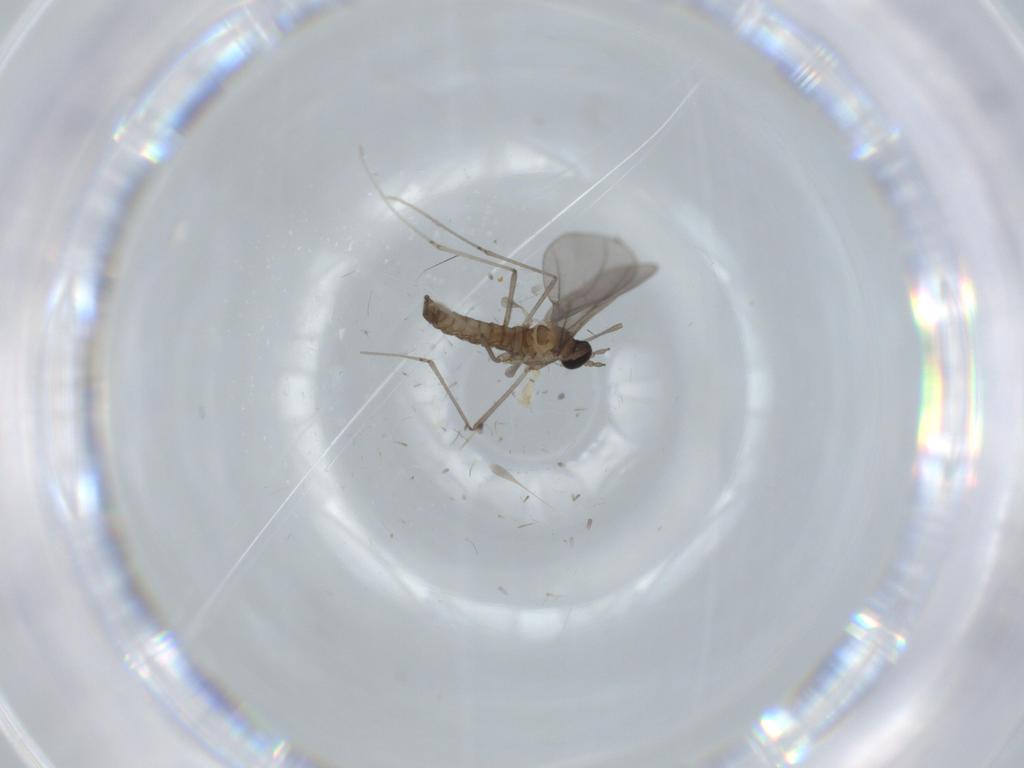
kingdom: Animalia
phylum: Arthropoda
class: Insecta
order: Diptera
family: Cecidomyiidae
